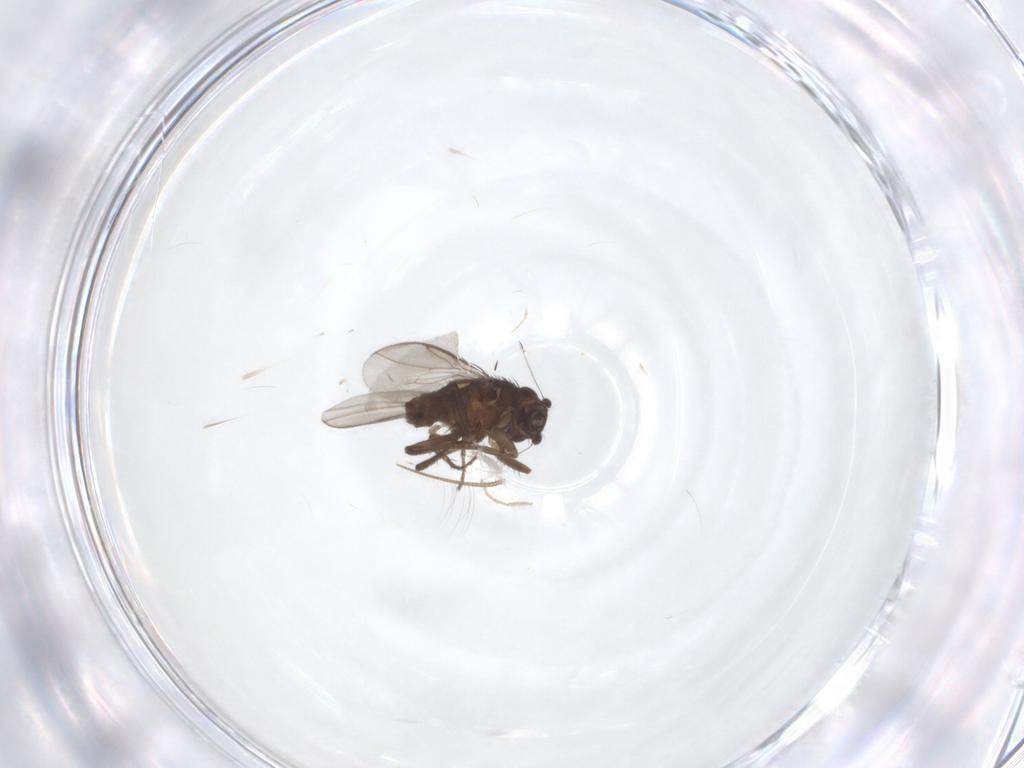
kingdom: Animalia
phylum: Arthropoda
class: Insecta
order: Diptera
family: Sphaeroceridae
